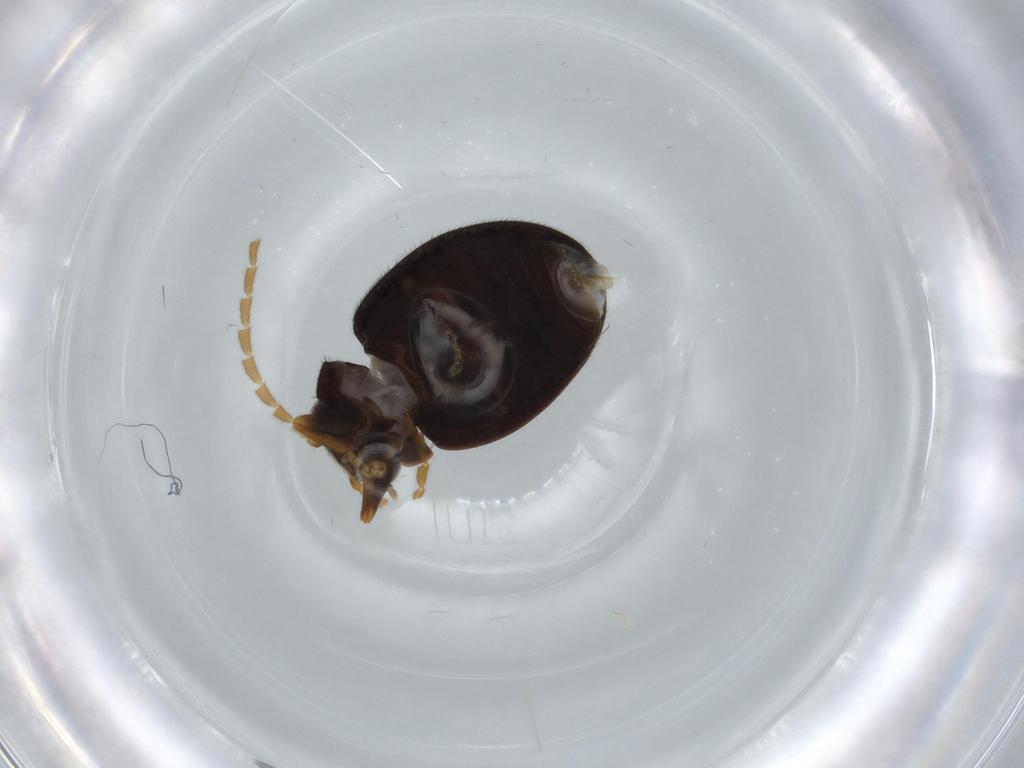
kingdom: Animalia
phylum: Arthropoda
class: Insecta
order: Coleoptera
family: Scirtidae
